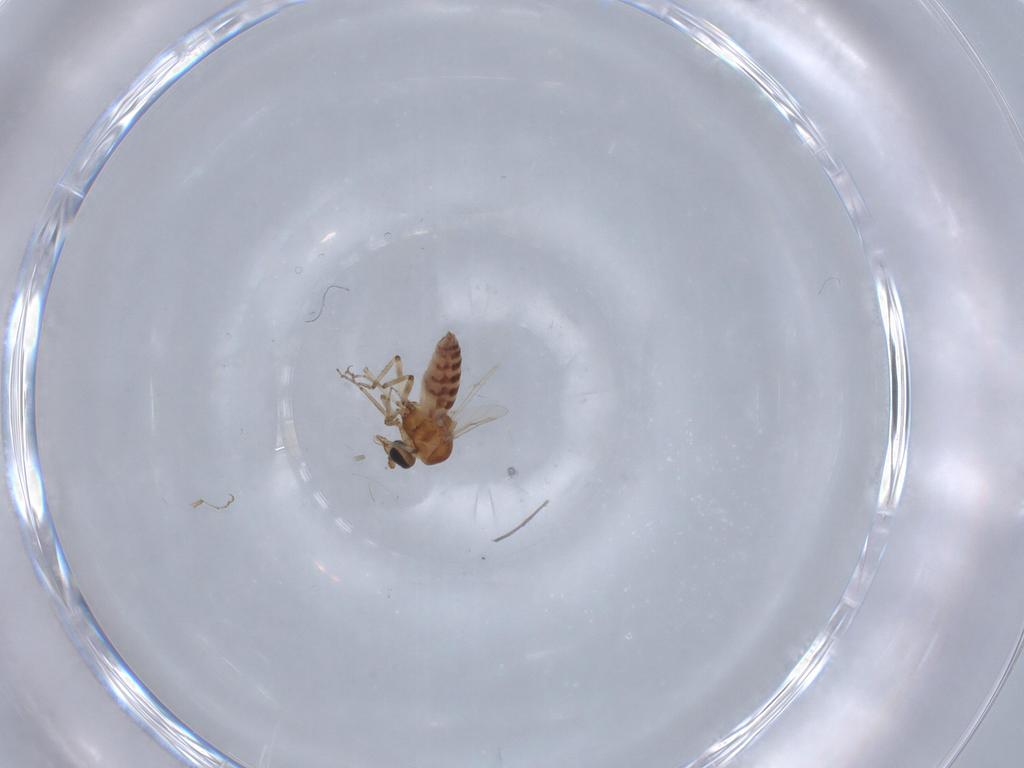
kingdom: Animalia
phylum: Arthropoda
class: Insecta
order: Diptera
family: Ceratopogonidae
